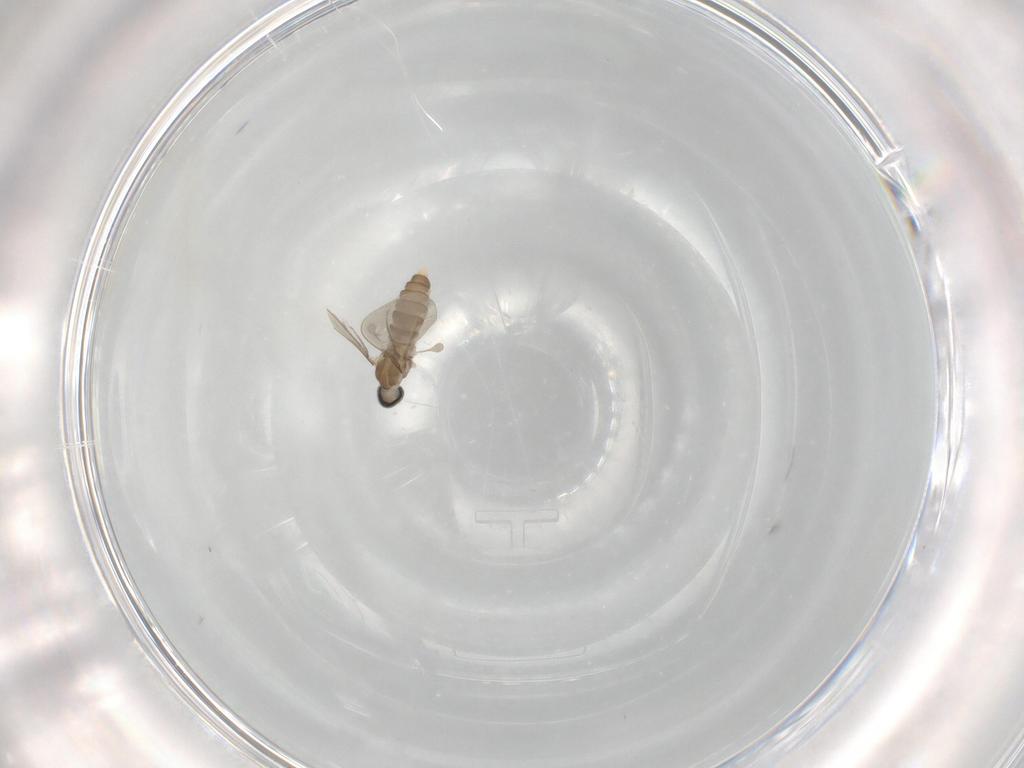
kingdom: Animalia
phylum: Arthropoda
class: Insecta
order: Diptera
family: Cecidomyiidae
